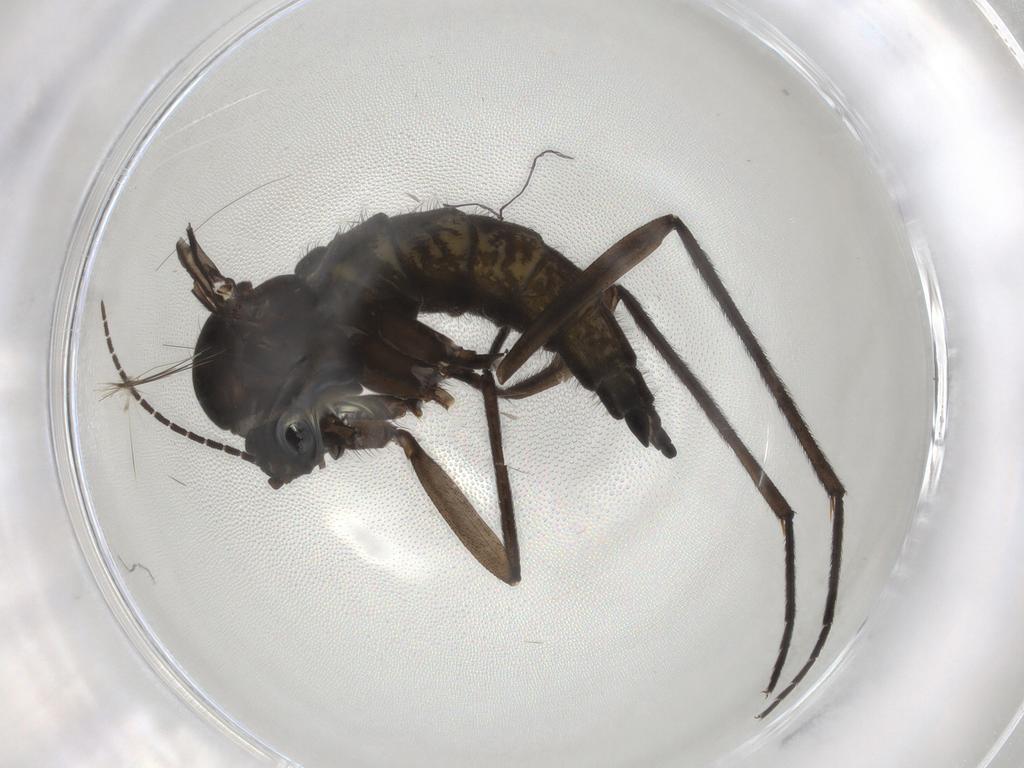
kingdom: Animalia
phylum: Arthropoda
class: Insecta
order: Diptera
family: Sciaridae
